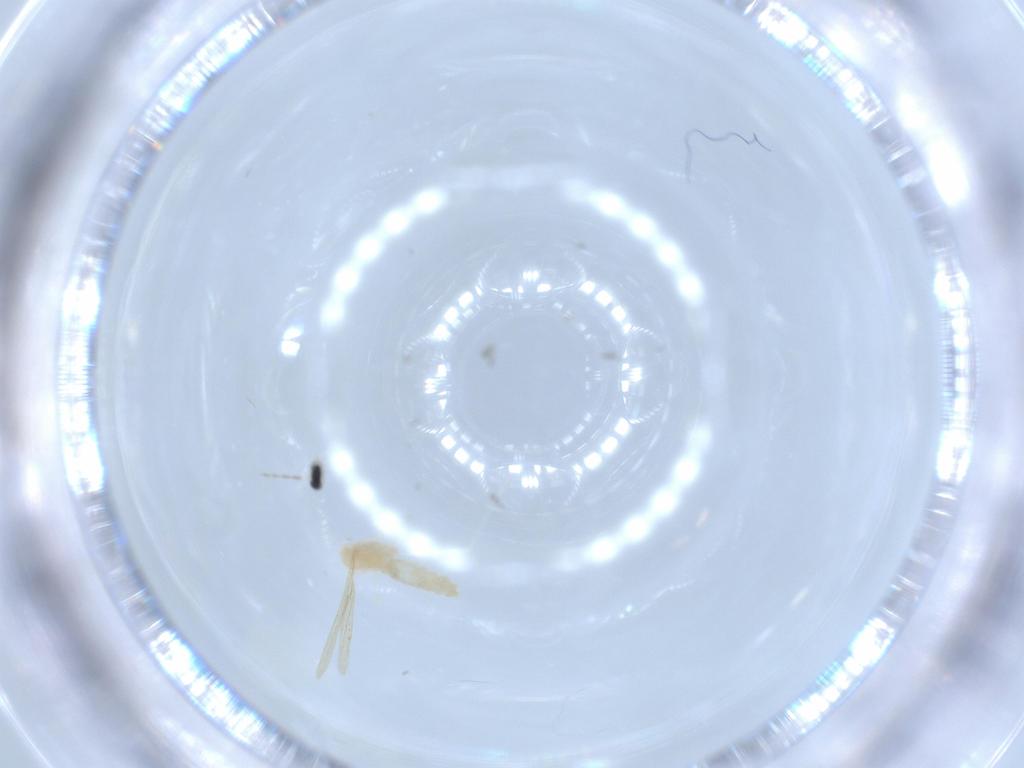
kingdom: Animalia
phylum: Arthropoda
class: Insecta
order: Diptera
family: Cecidomyiidae
